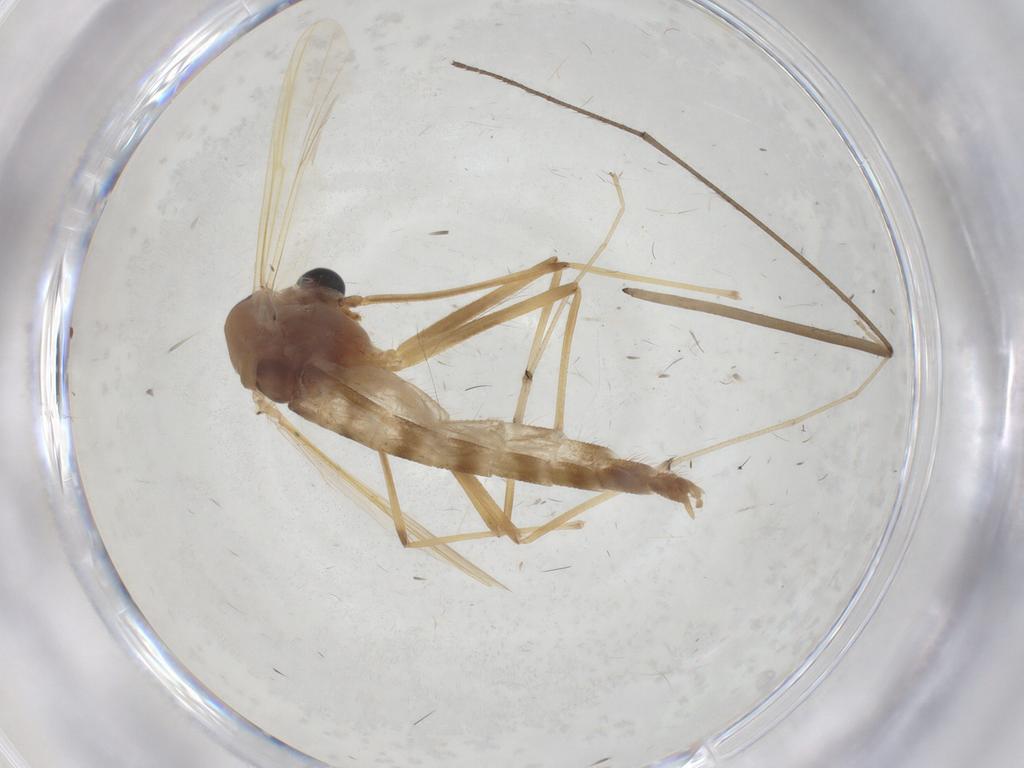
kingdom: Animalia
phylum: Arthropoda
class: Insecta
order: Diptera
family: Chironomidae
